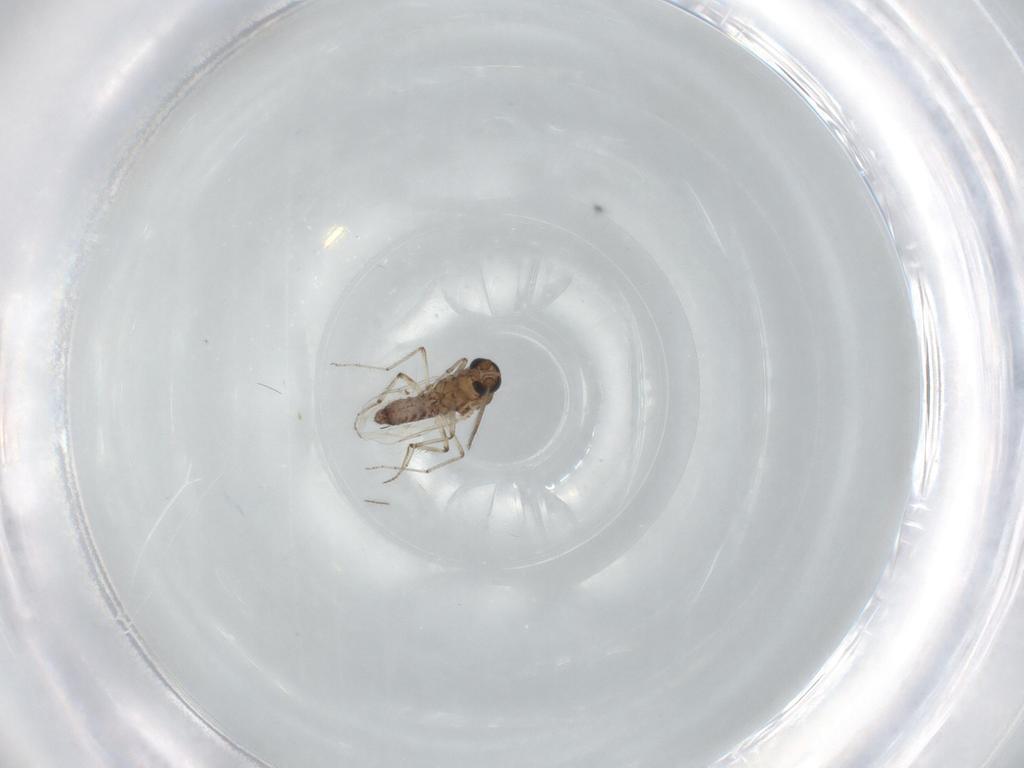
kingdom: Animalia
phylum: Arthropoda
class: Insecta
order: Diptera
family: Ceratopogonidae
